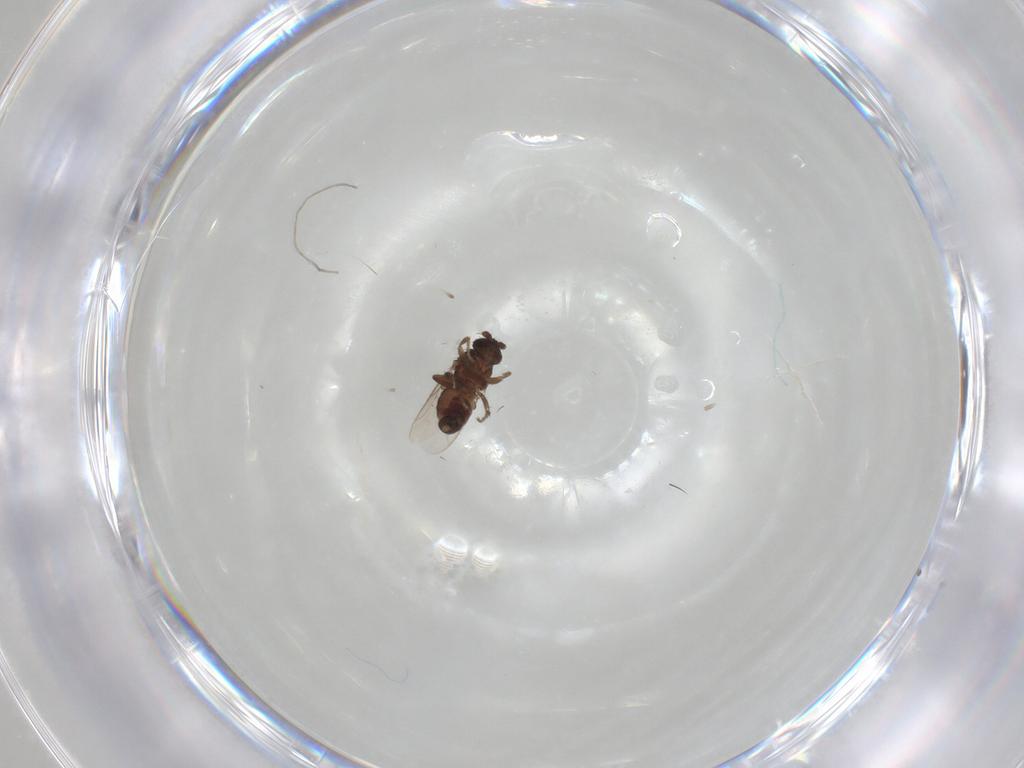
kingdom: Animalia
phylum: Arthropoda
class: Insecta
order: Diptera
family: Sphaeroceridae
